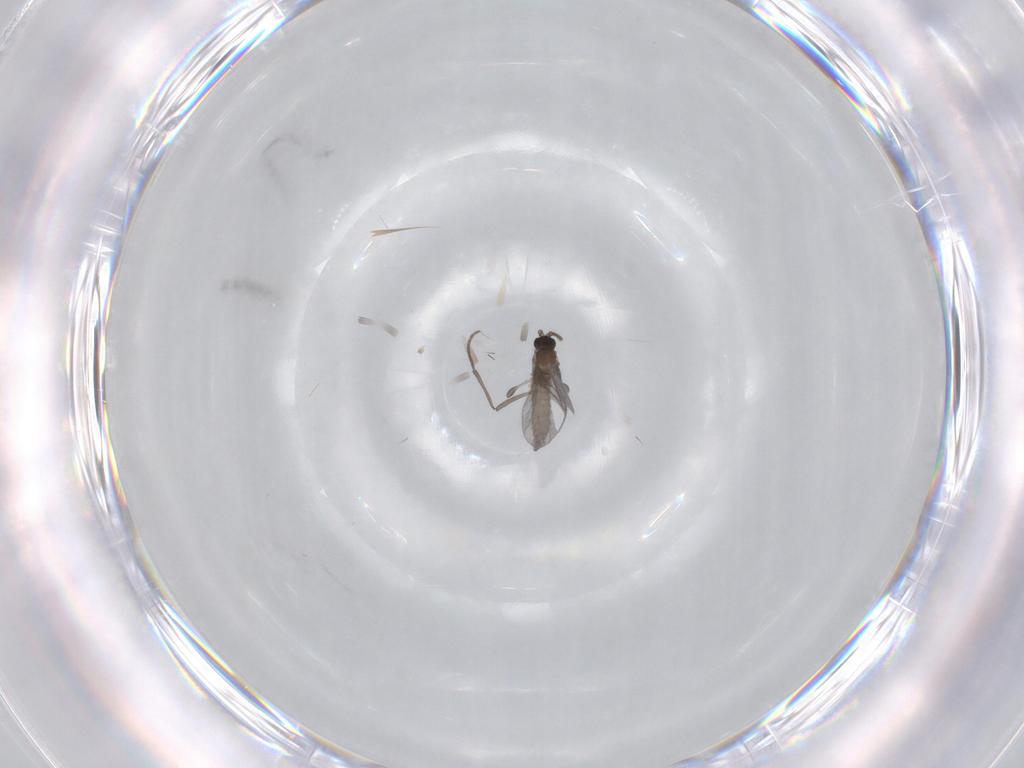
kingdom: Animalia
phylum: Arthropoda
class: Insecta
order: Diptera
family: Sciaridae
